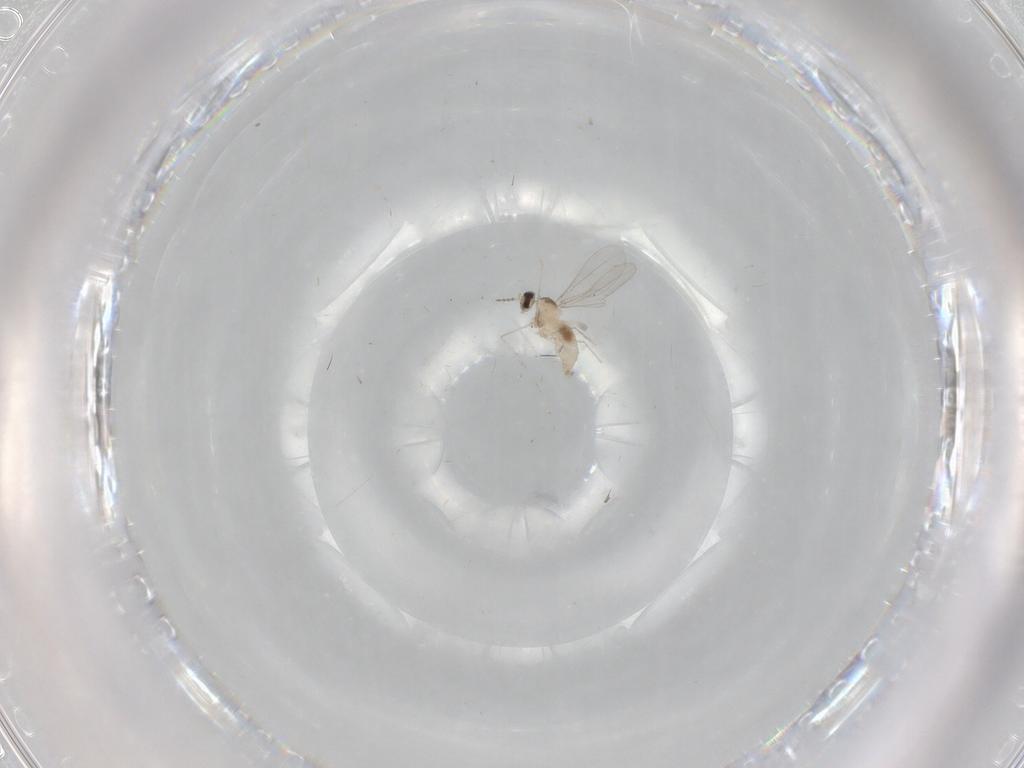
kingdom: Animalia
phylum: Arthropoda
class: Insecta
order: Diptera
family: Cecidomyiidae
